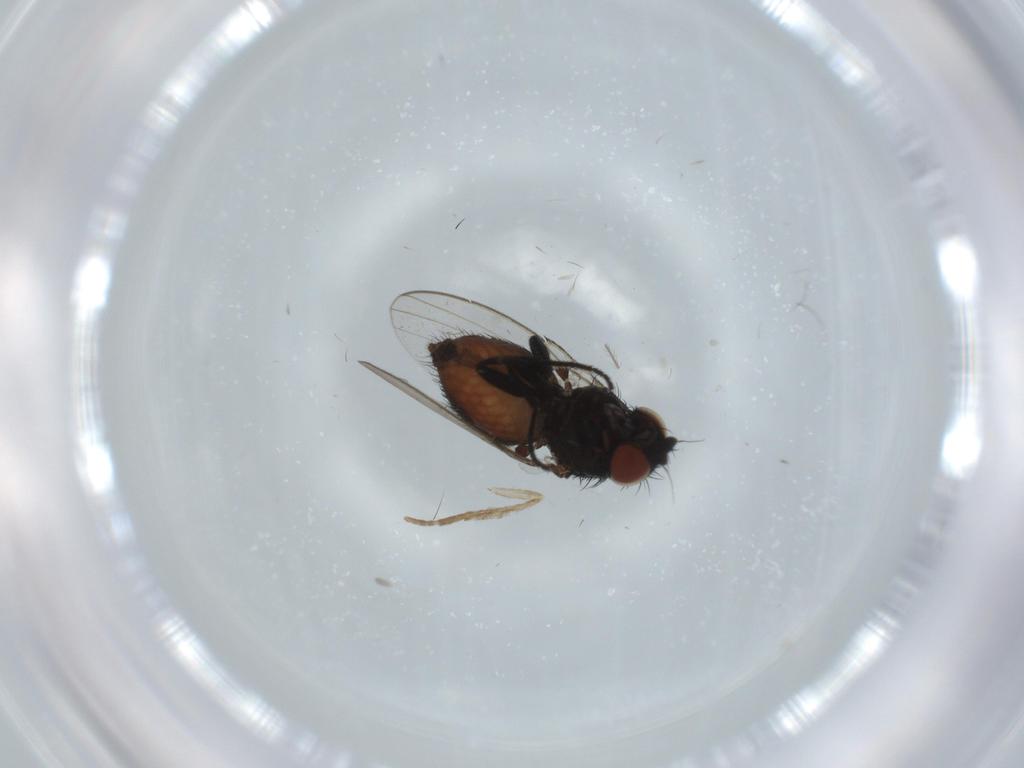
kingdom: Animalia
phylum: Arthropoda
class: Insecta
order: Diptera
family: Milichiidae
